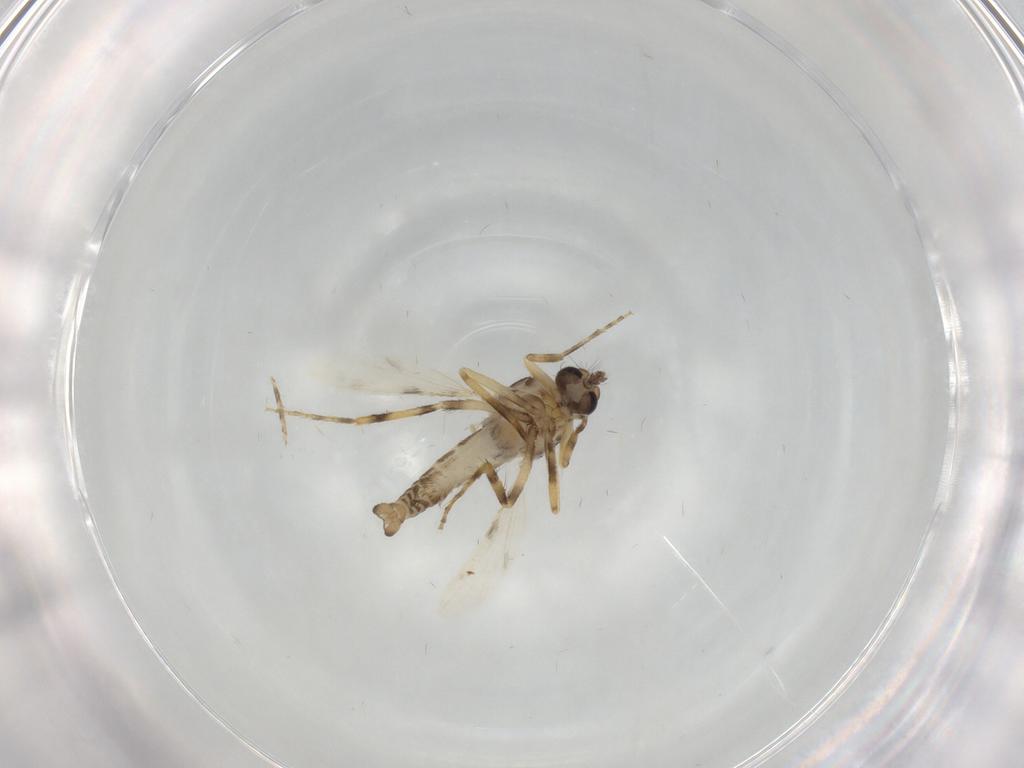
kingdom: Animalia
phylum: Arthropoda
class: Insecta
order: Diptera
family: Ceratopogonidae
